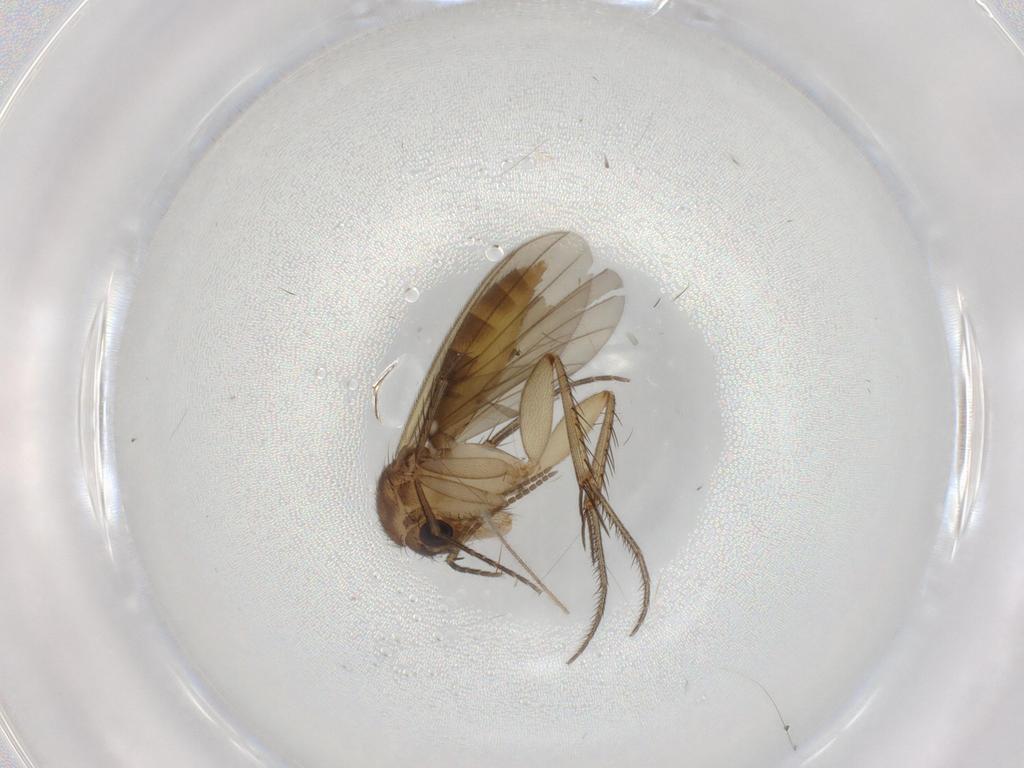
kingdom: Animalia
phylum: Arthropoda
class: Insecta
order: Diptera
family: Mycetophilidae
